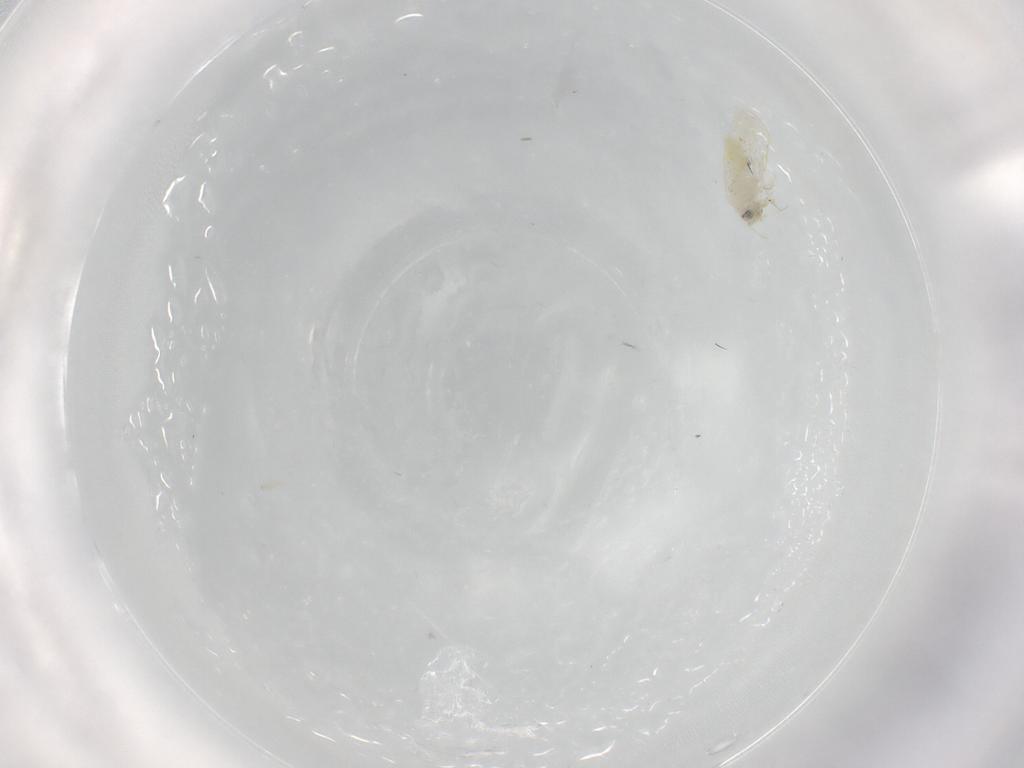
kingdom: Animalia
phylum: Arthropoda
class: Insecta
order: Hemiptera
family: Aleyrodidae
